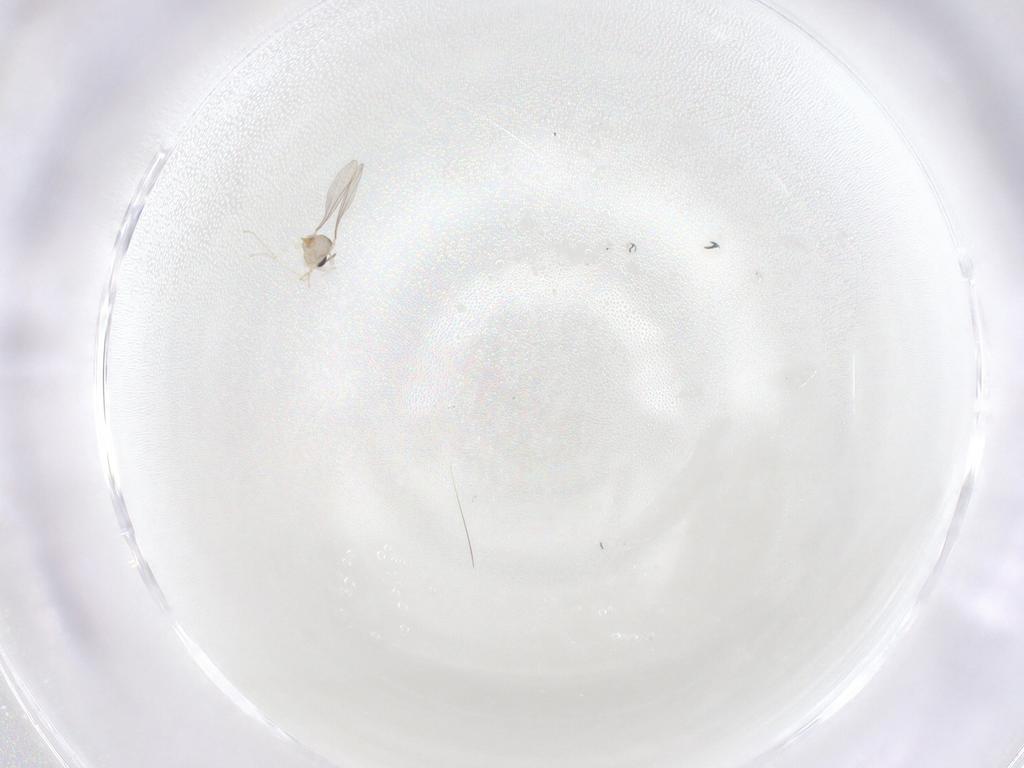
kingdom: Animalia
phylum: Arthropoda
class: Insecta
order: Diptera
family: Cecidomyiidae
